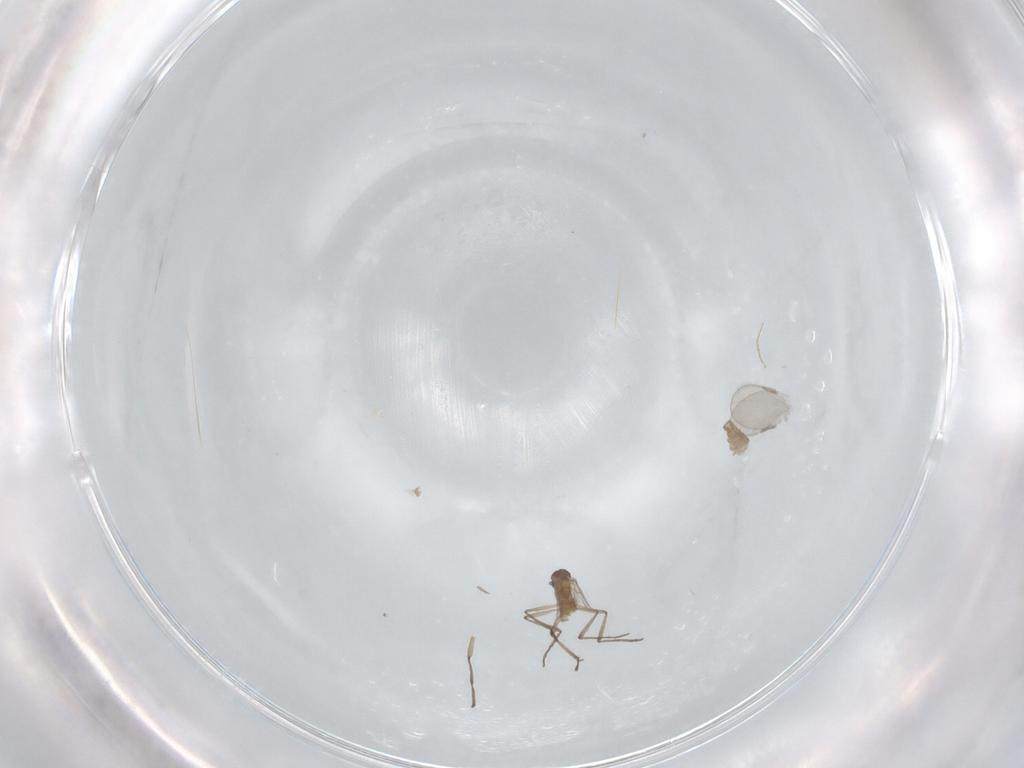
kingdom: Animalia
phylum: Arthropoda
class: Insecta
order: Diptera
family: Cecidomyiidae
